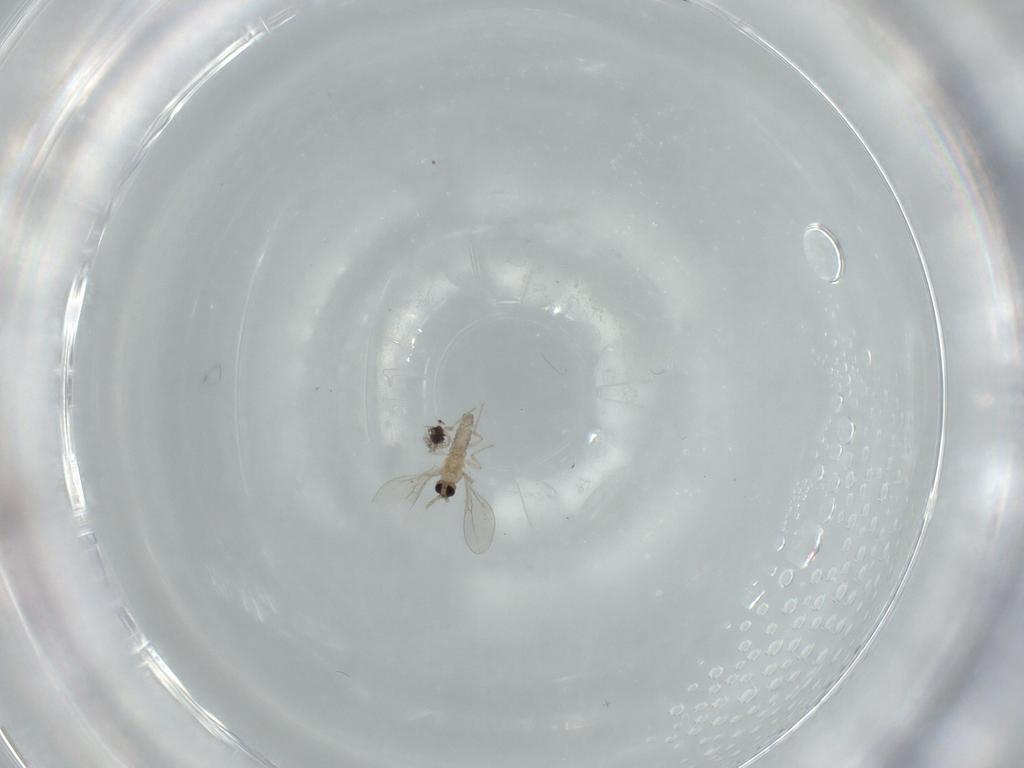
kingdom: Animalia
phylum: Arthropoda
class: Insecta
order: Diptera
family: Cecidomyiidae
